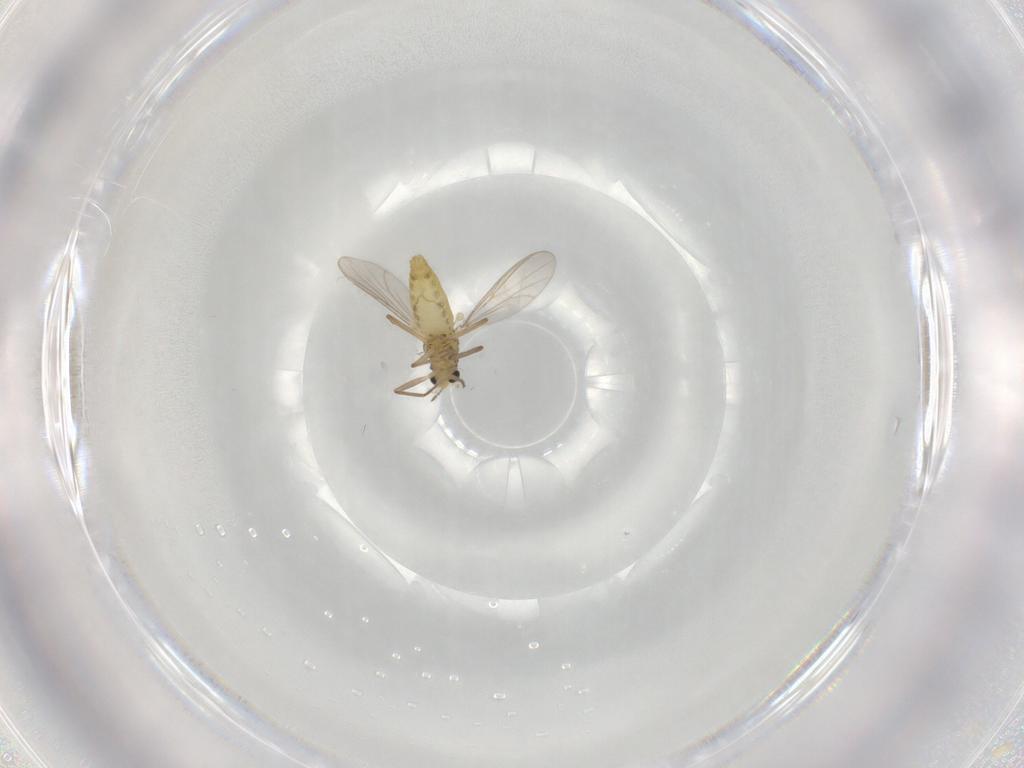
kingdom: Animalia
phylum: Arthropoda
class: Insecta
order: Diptera
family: Chironomidae
